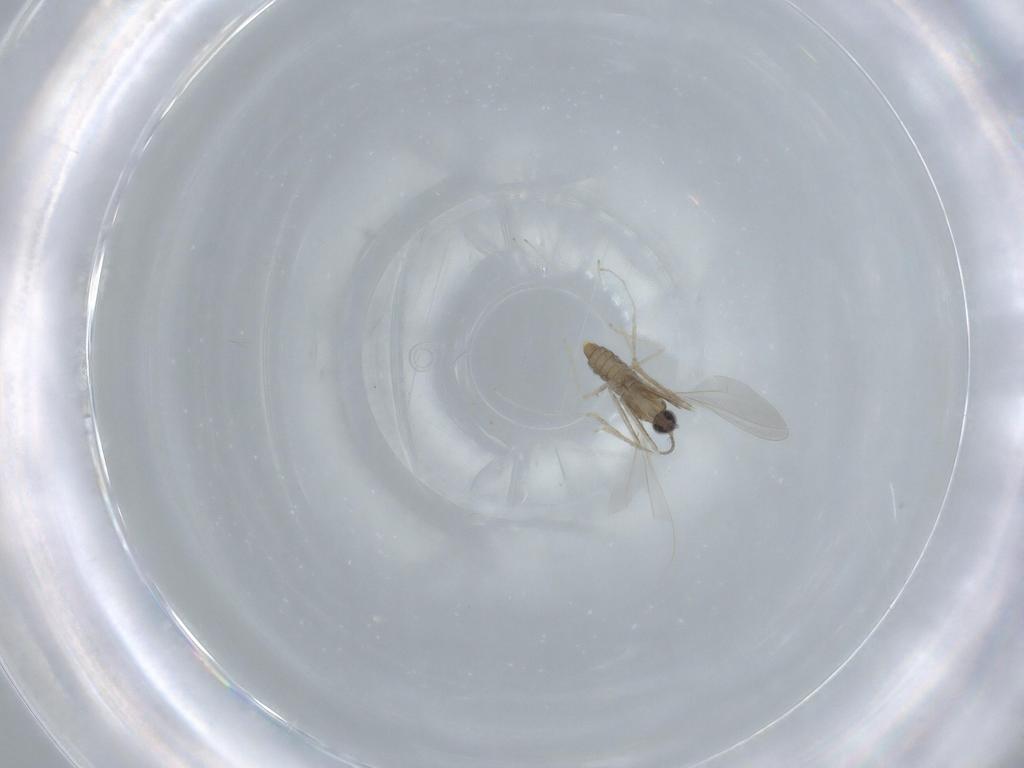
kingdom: Animalia
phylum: Arthropoda
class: Insecta
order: Diptera
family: Cecidomyiidae
